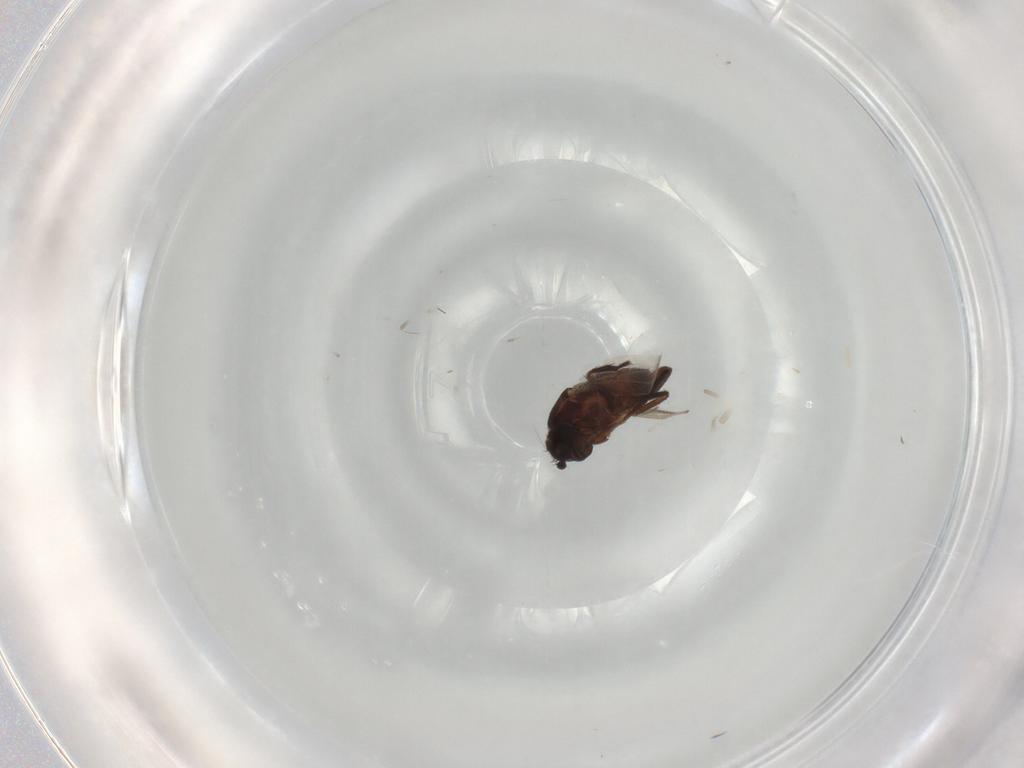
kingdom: Animalia
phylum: Arthropoda
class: Insecta
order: Diptera
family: Sphaeroceridae
